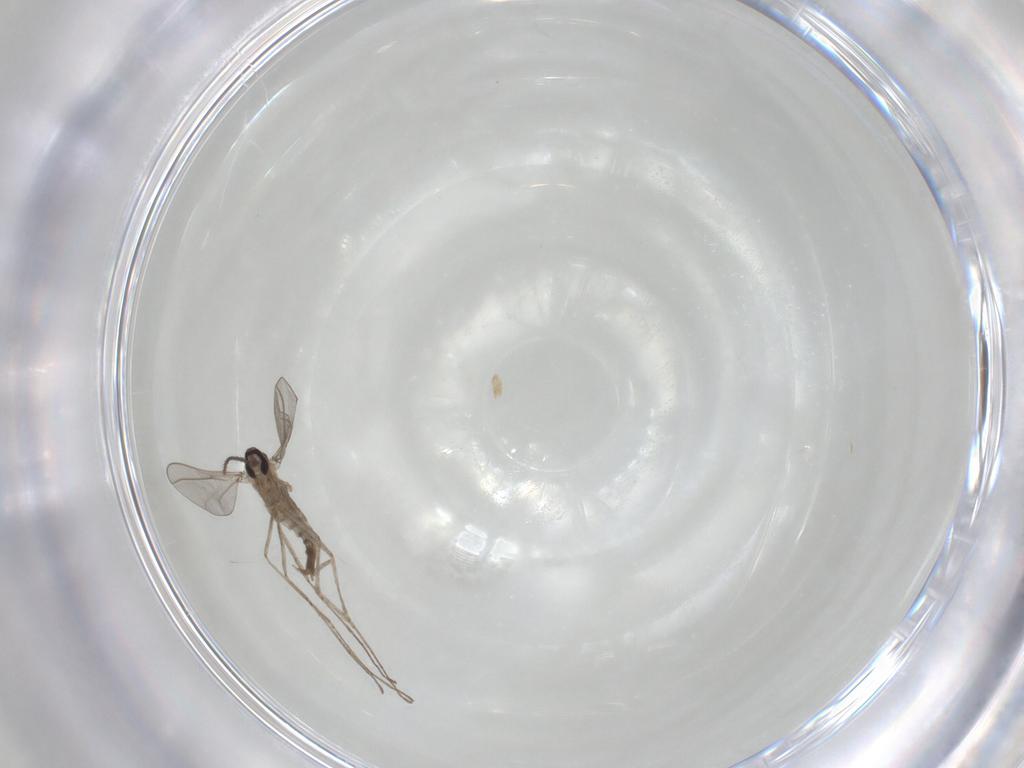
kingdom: Animalia
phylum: Arthropoda
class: Insecta
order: Diptera
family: Cecidomyiidae
